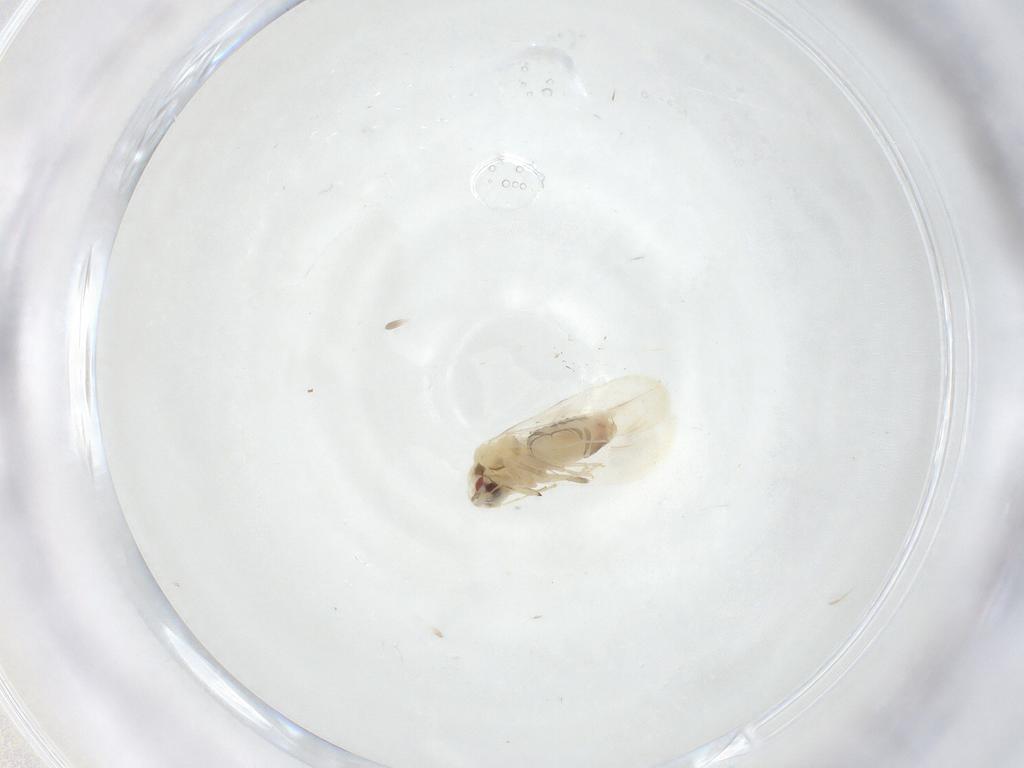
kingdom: Animalia
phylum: Arthropoda
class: Insecta
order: Hemiptera
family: Aleyrodidae
